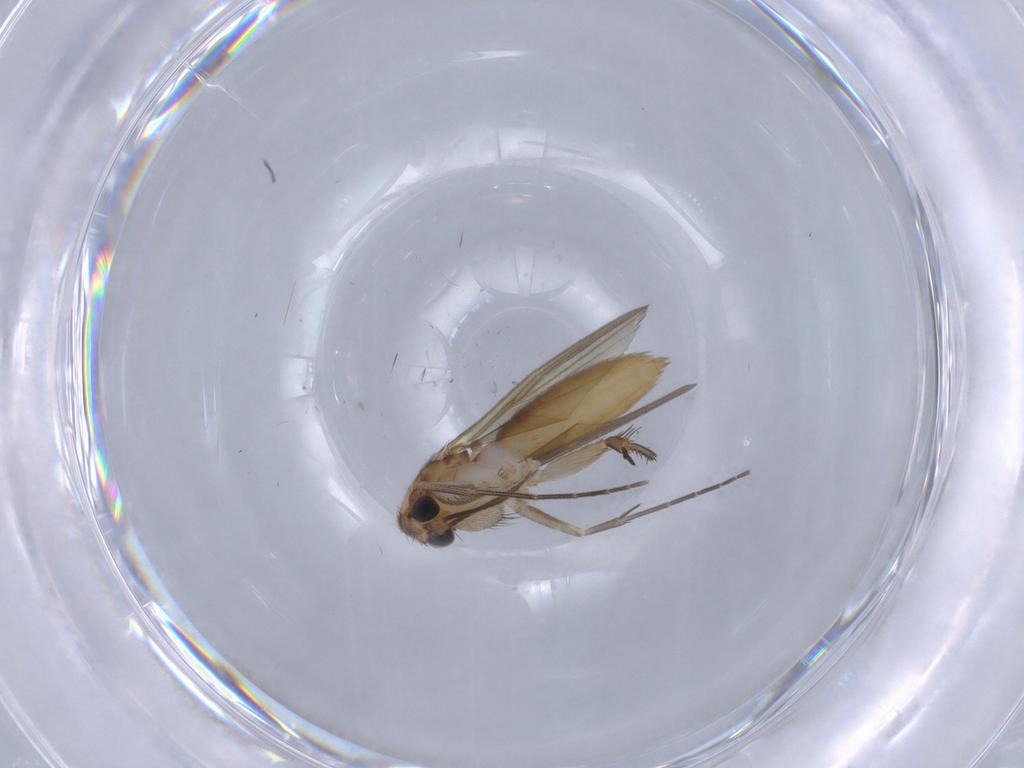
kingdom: Animalia
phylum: Arthropoda
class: Insecta
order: Diptera
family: Mycetophilidae
